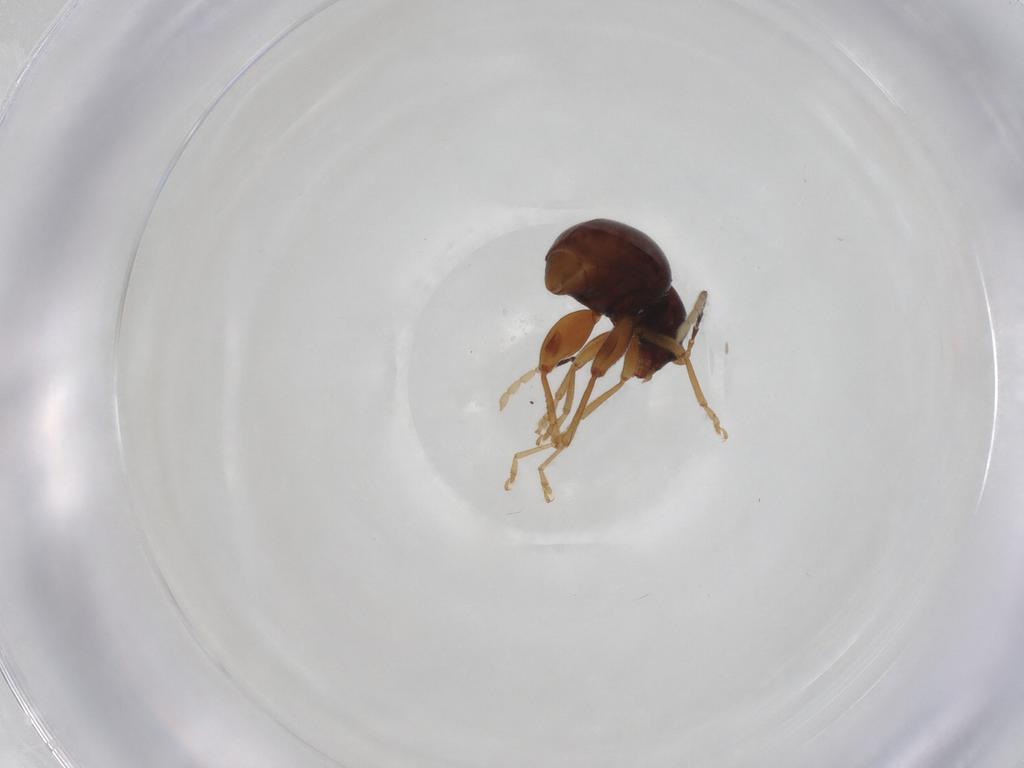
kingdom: Animalia
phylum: Arthropoda
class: Insecta
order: Coleoptera
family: Chrysomelidae
